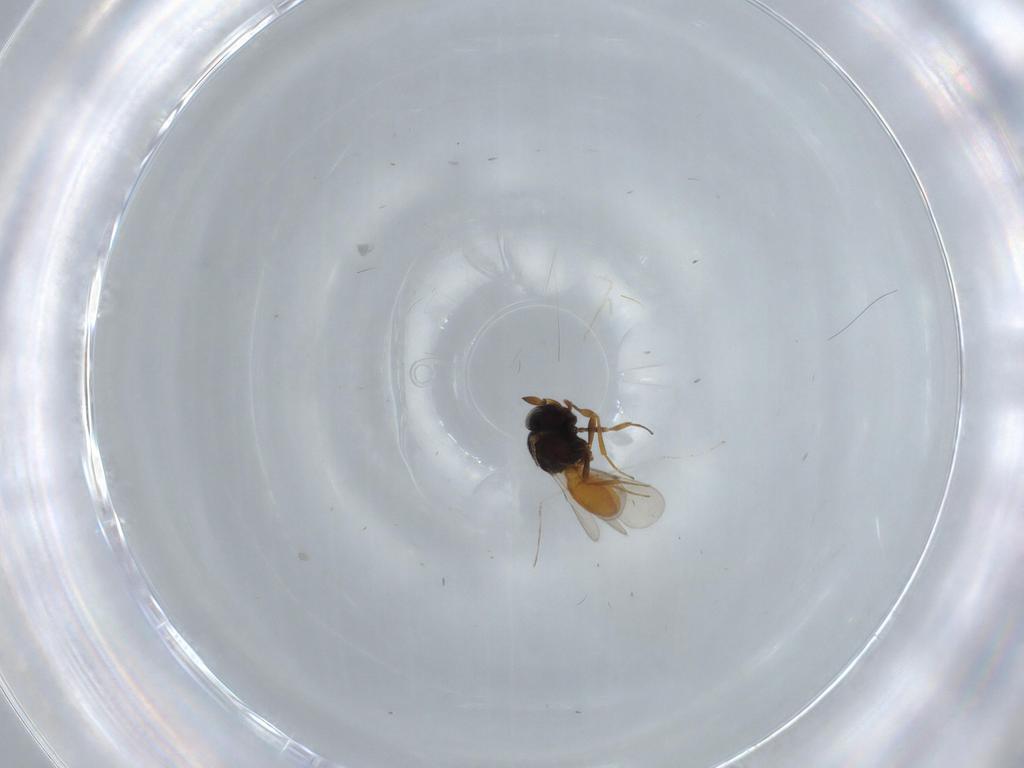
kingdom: Animalia
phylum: Arthropoda
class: Insecta
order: Hymenoptera
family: Scelionidae
